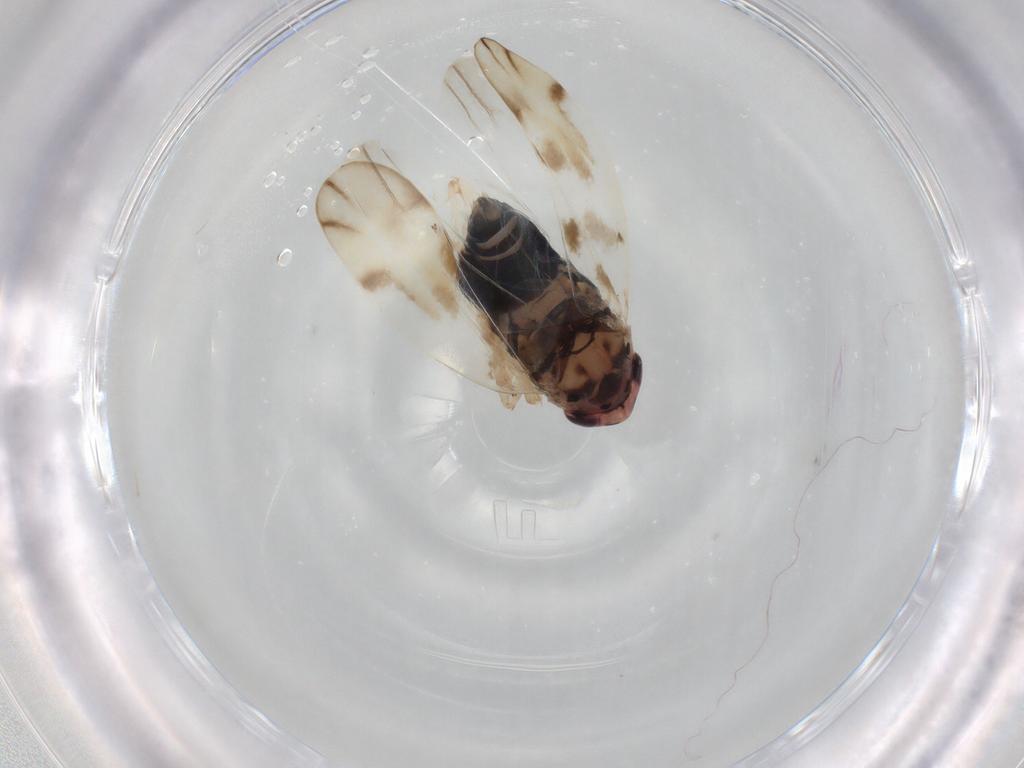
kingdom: Animalia
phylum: Arthropoda
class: Insecta
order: Hemiptera
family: Cicadellidae
